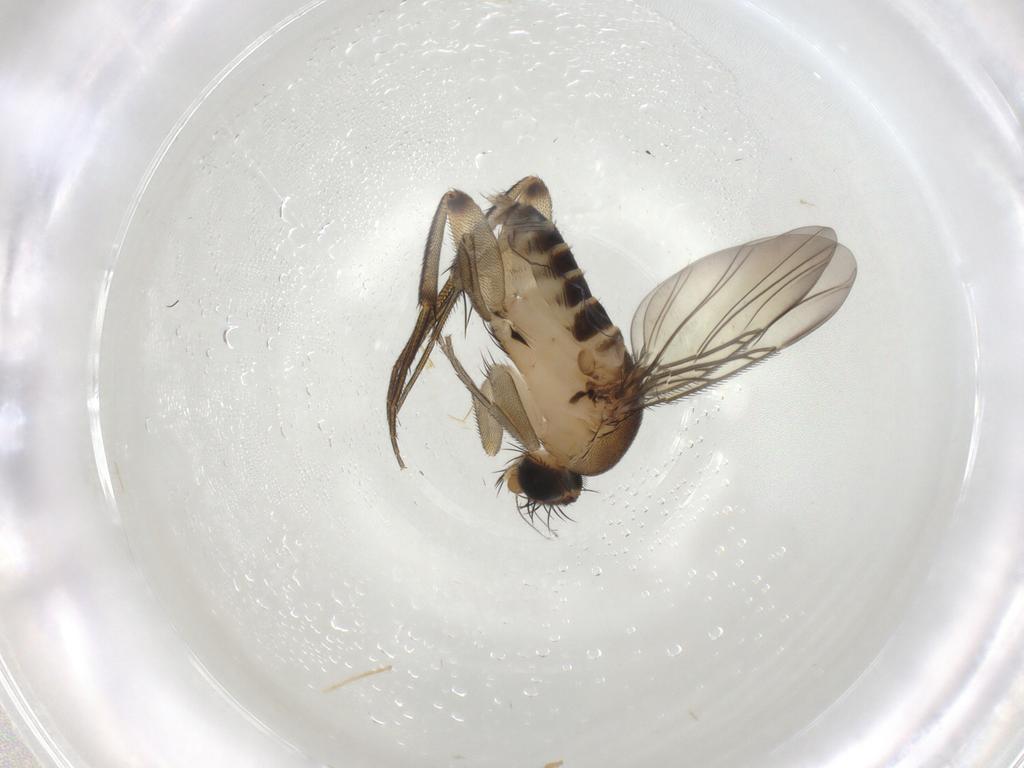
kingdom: Animalia
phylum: Arthropoda
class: Insecta
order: Diptera
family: Phoridae
